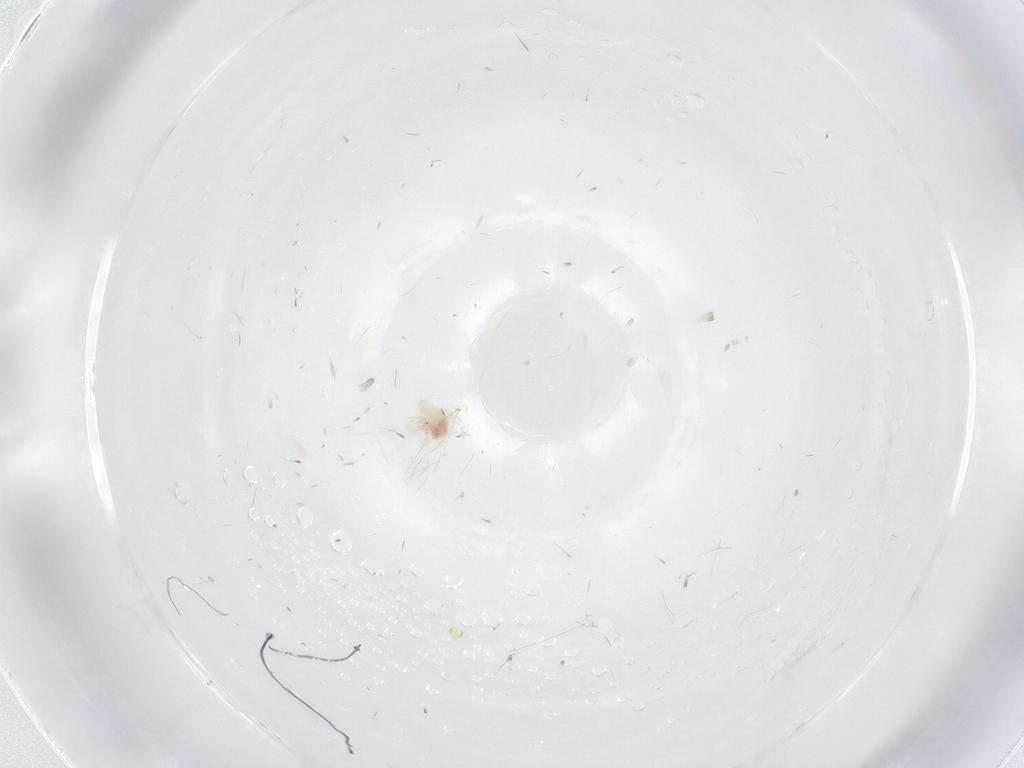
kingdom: Animalia
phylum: Arthropoda
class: Arachnida
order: Trombidiformes
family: Anystidae
